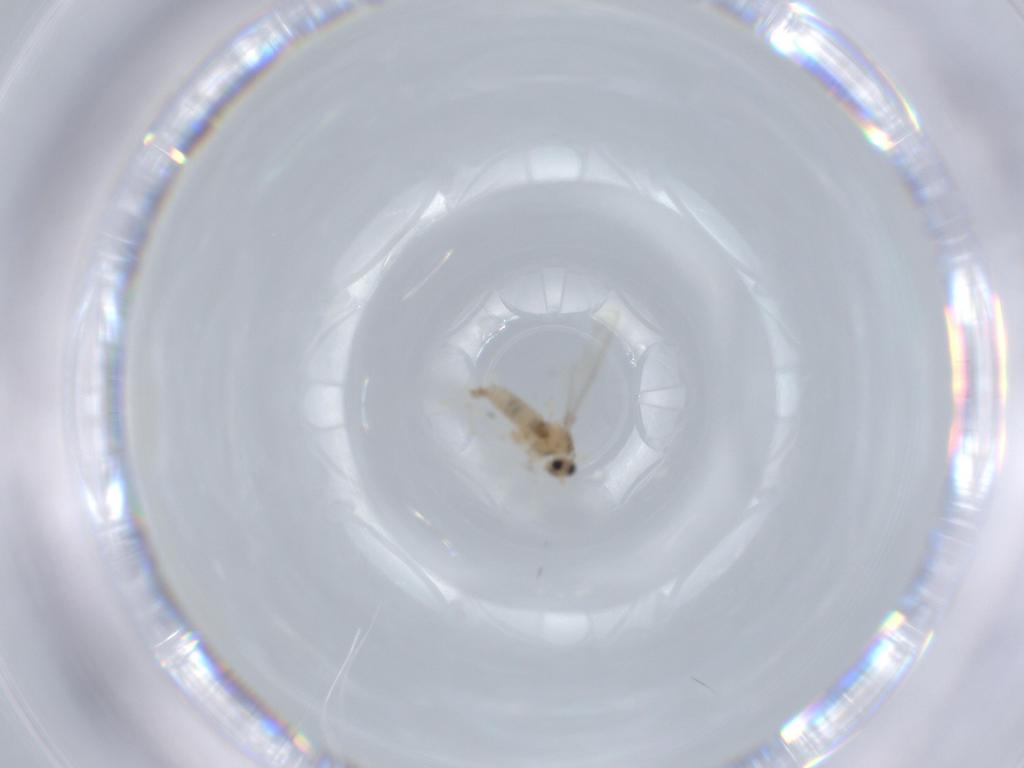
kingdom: Animalia
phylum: Arthropoda
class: Insecta
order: Diptera
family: Cecidomyiidae
